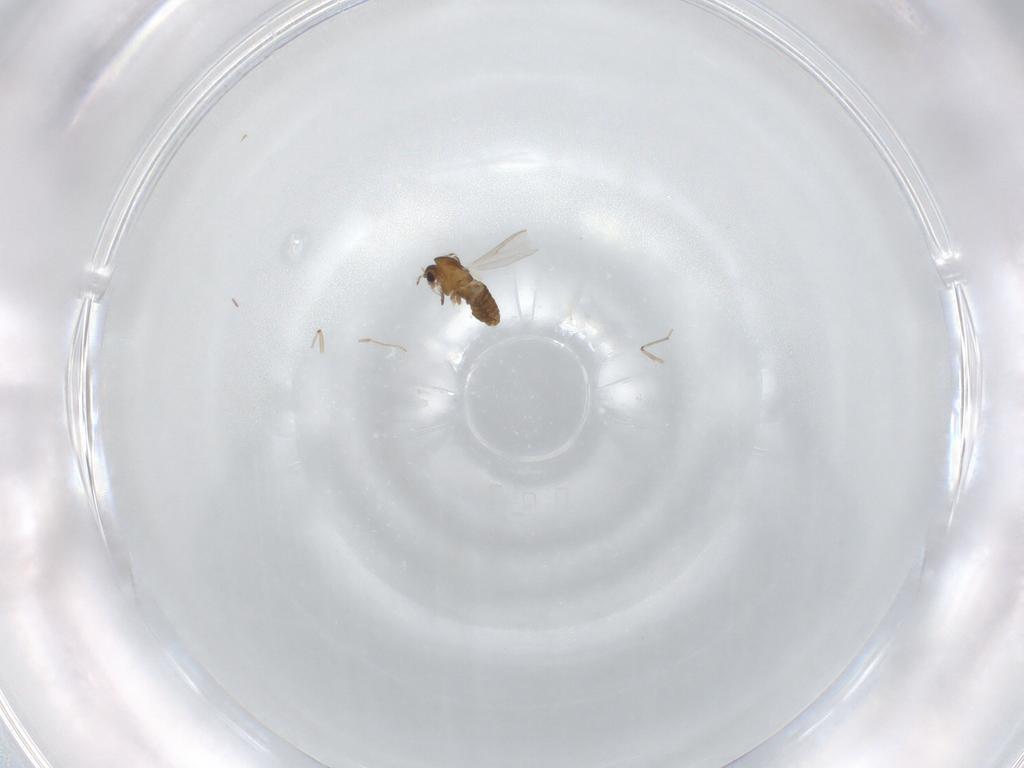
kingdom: Animalia
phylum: Arthropoda
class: Insecta
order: Diptera
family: Chironomidae
